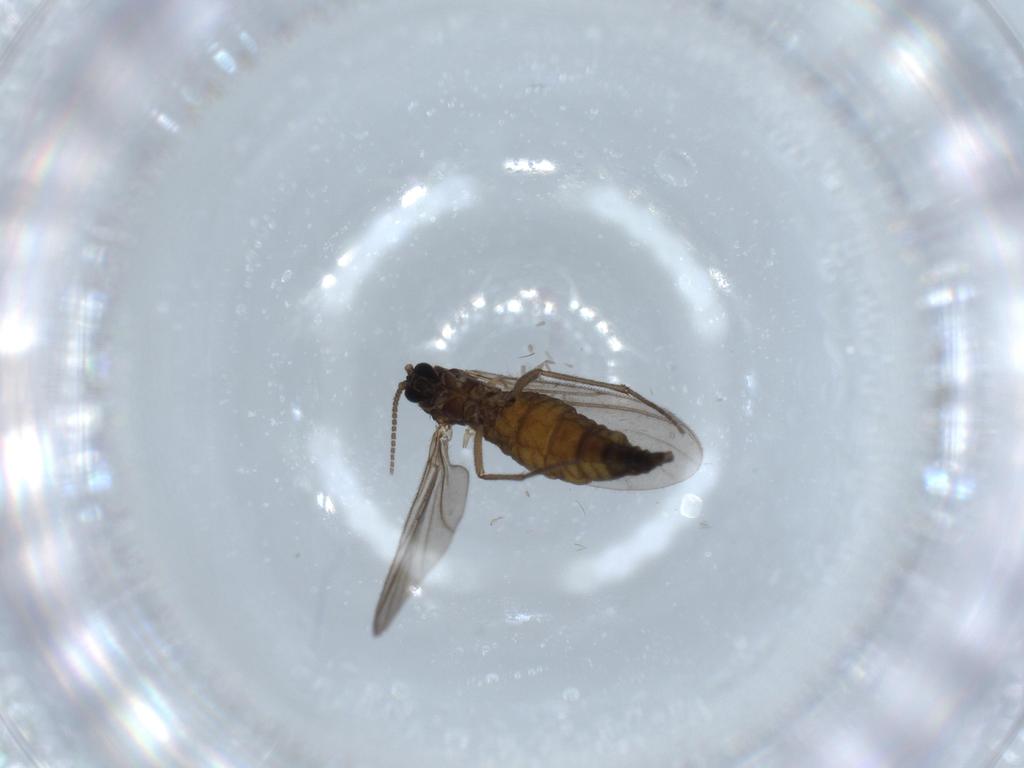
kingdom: Animalia
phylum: Arthropoda
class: Insecta
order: Diptera
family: Sciaridae
